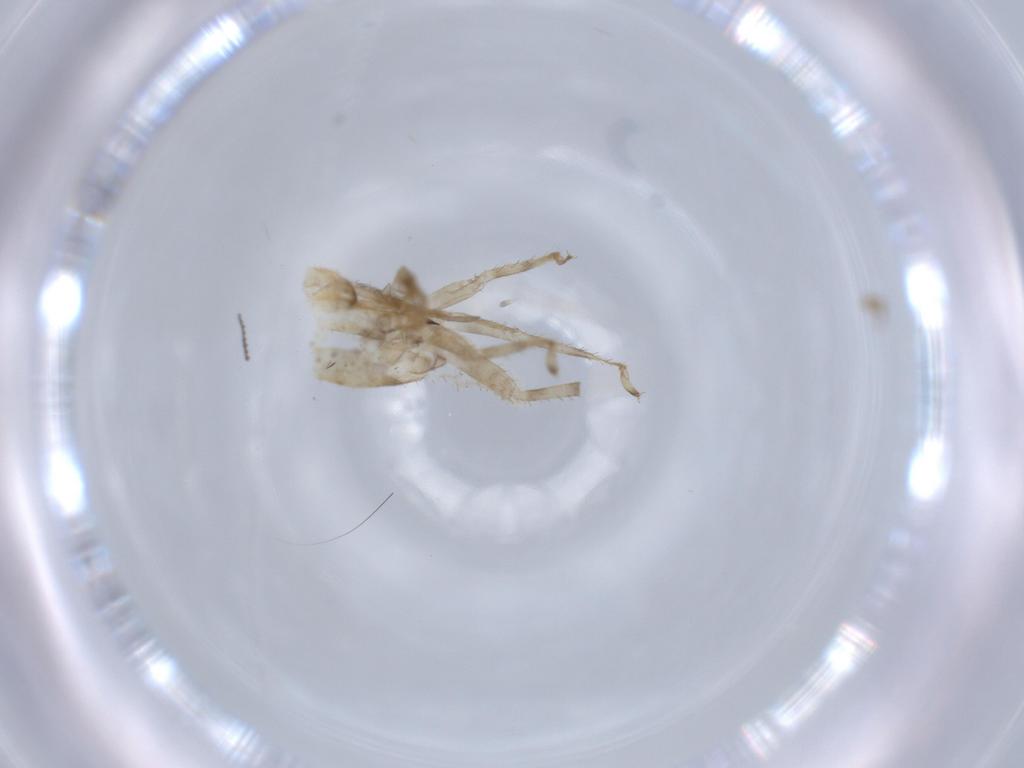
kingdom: Animalia
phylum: Arthropoda
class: Insecta
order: Hemiptera
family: Miridae
